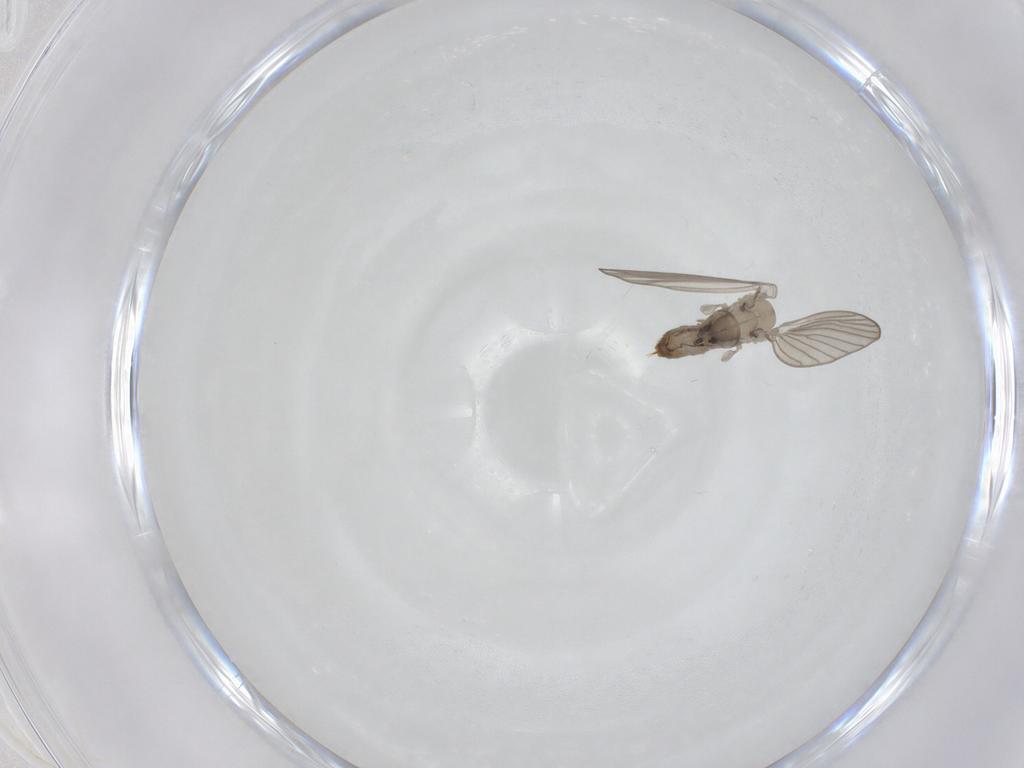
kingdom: Animalia
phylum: Arthropoda
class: Insecta
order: Diptera
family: Psychodidae
